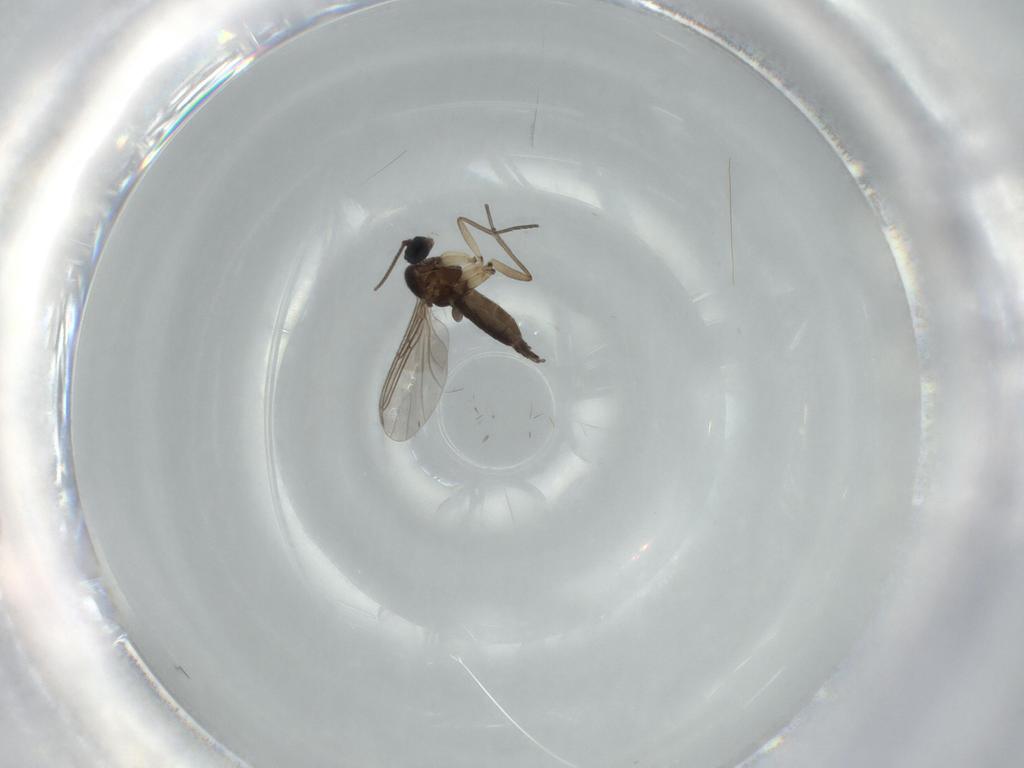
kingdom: Animalia
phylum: Arthropoda
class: Insecta
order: Diptera
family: Sciaridae
